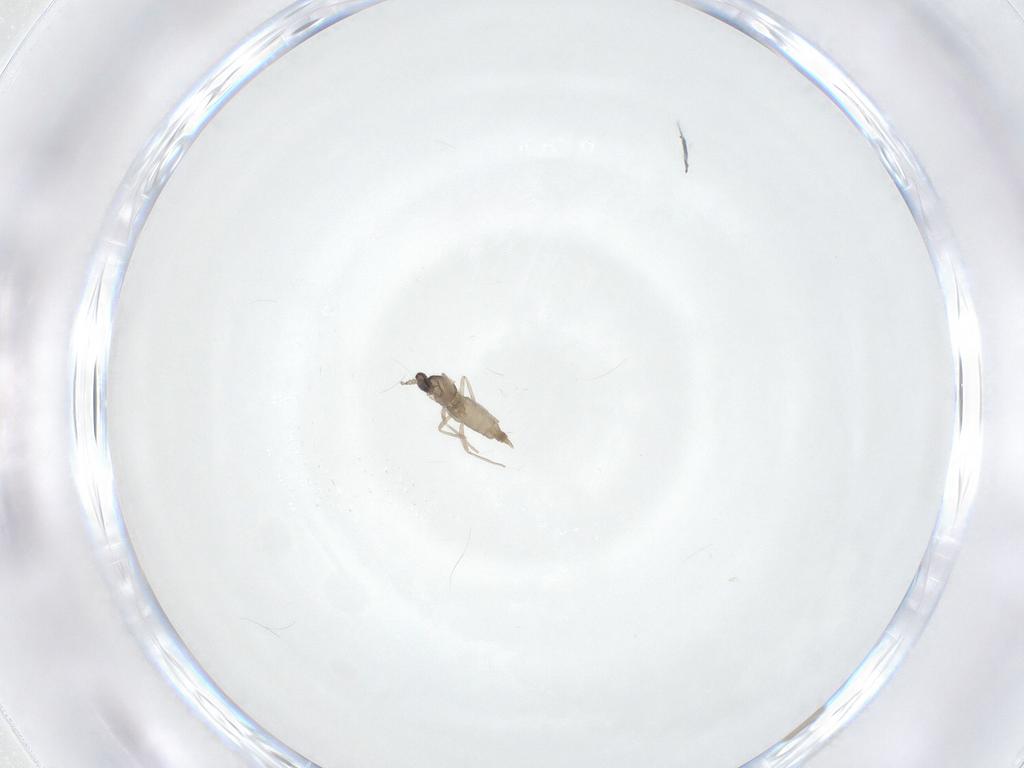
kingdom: Animalia
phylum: Arthropoda
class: Insecta
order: Diptera
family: Cecidomyiidae
